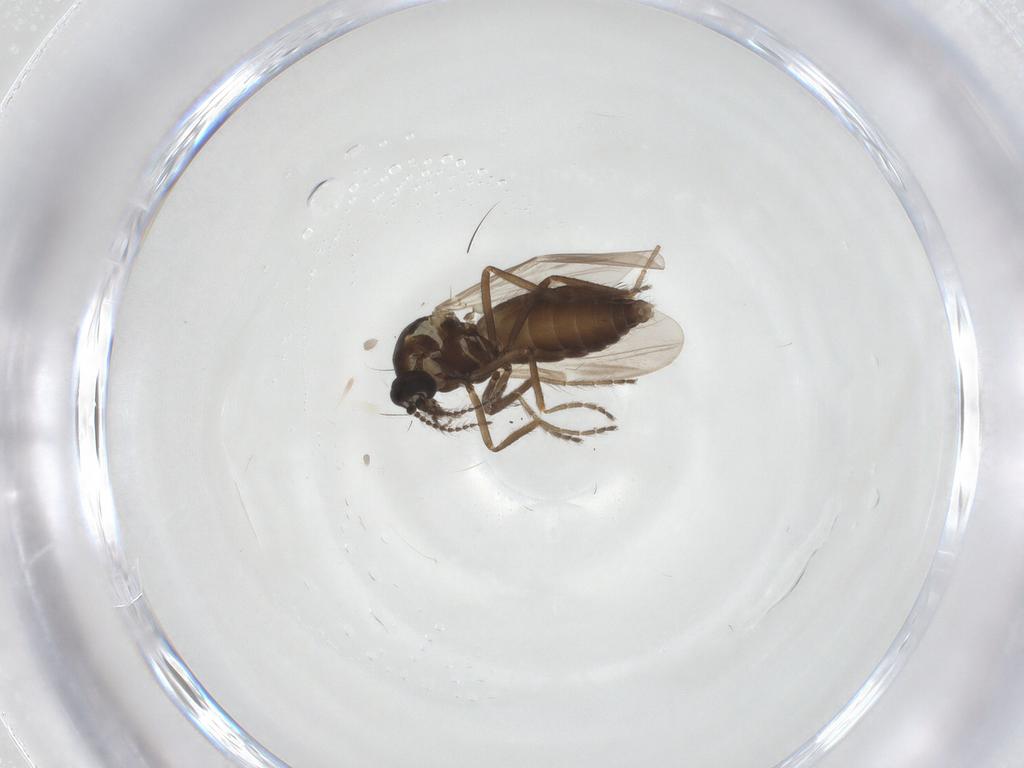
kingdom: Animalia
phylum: Arthropoda
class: Insecta
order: Diptera
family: Ceratopogonidae
